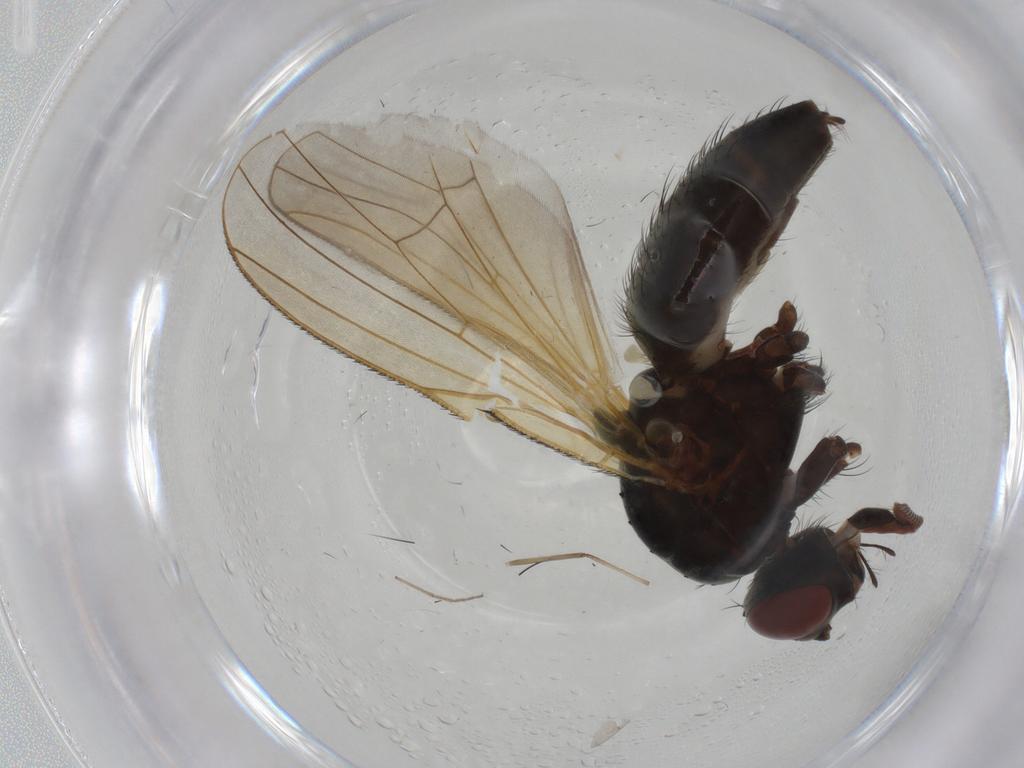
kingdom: Animalia
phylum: Arthropoda
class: Insecta
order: Diptera
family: Anthomyiidae
